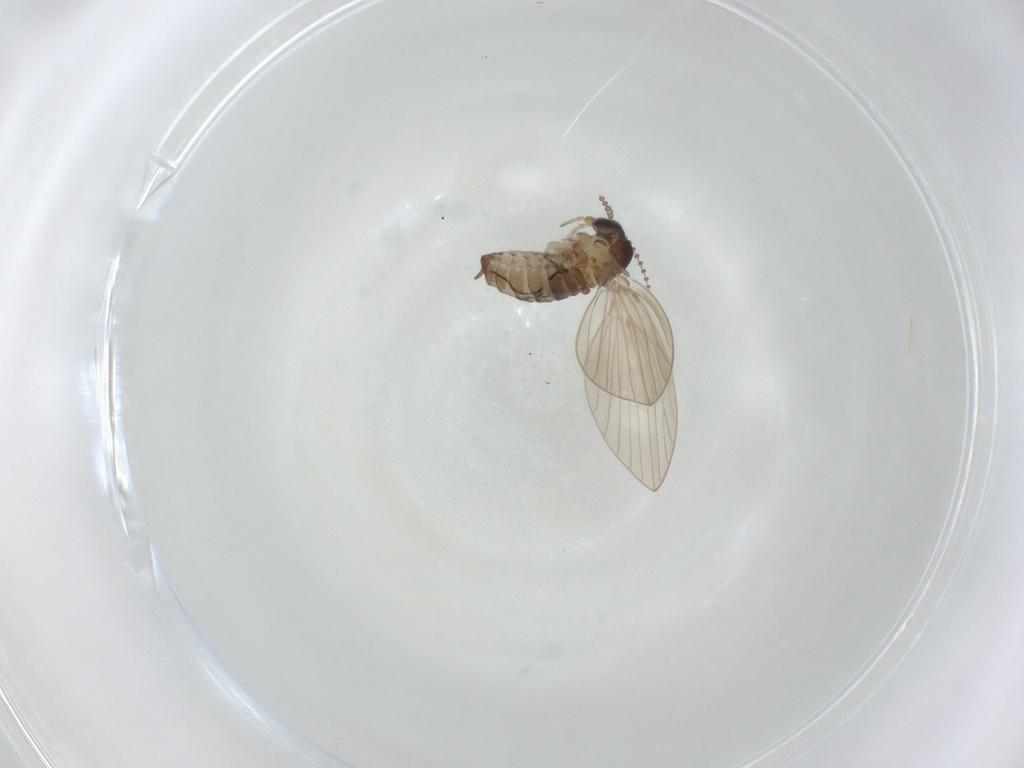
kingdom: Animalia
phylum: Arthropoda
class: Insecta
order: Diptera
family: Psychodidae
